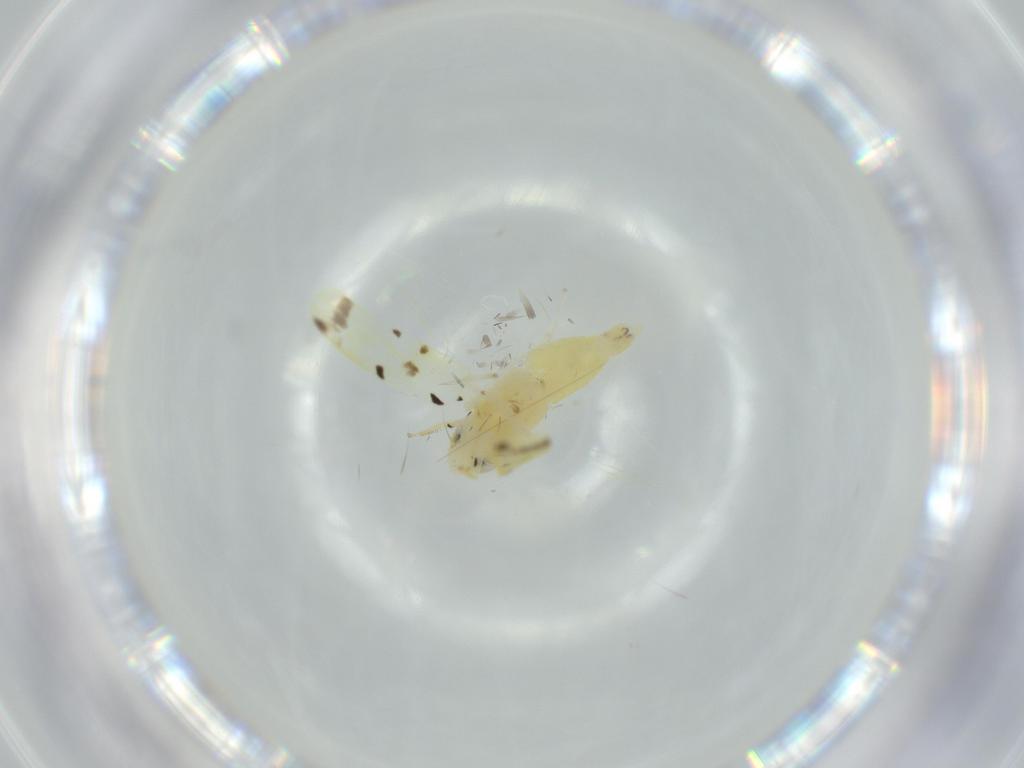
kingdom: Animalia
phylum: Arthropoda
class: Insecta
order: Hemiptera
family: Cicadellidae
